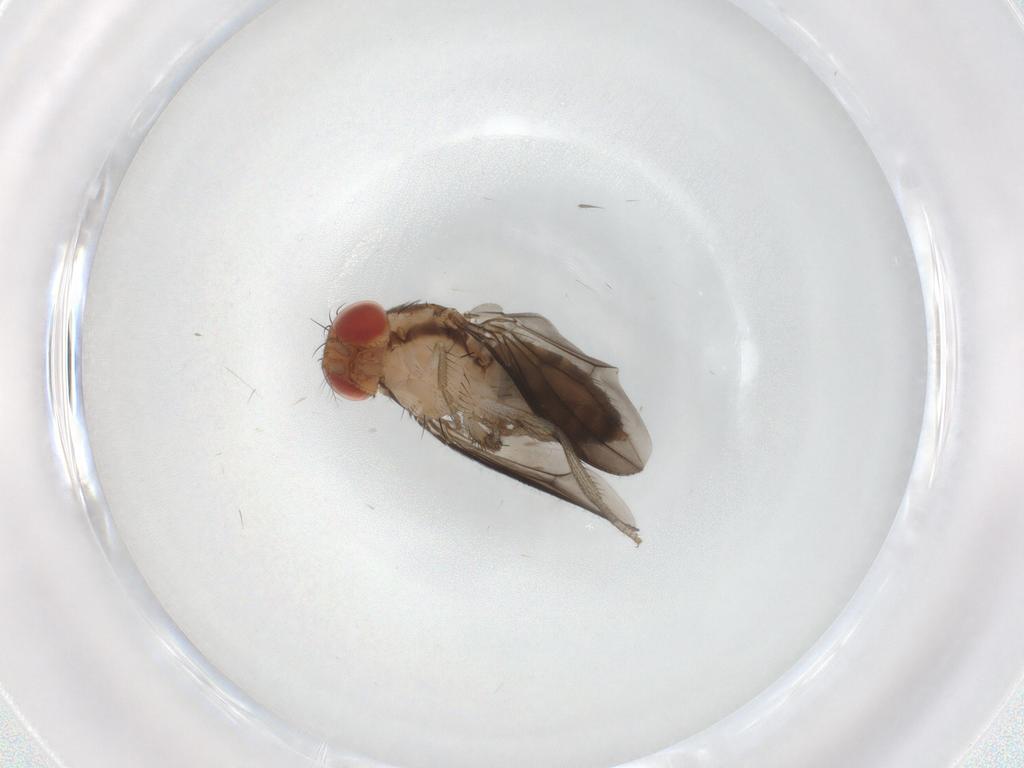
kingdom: Animalia
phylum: Arthropoda
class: Insecta
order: Diptera
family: Drosophilidae
